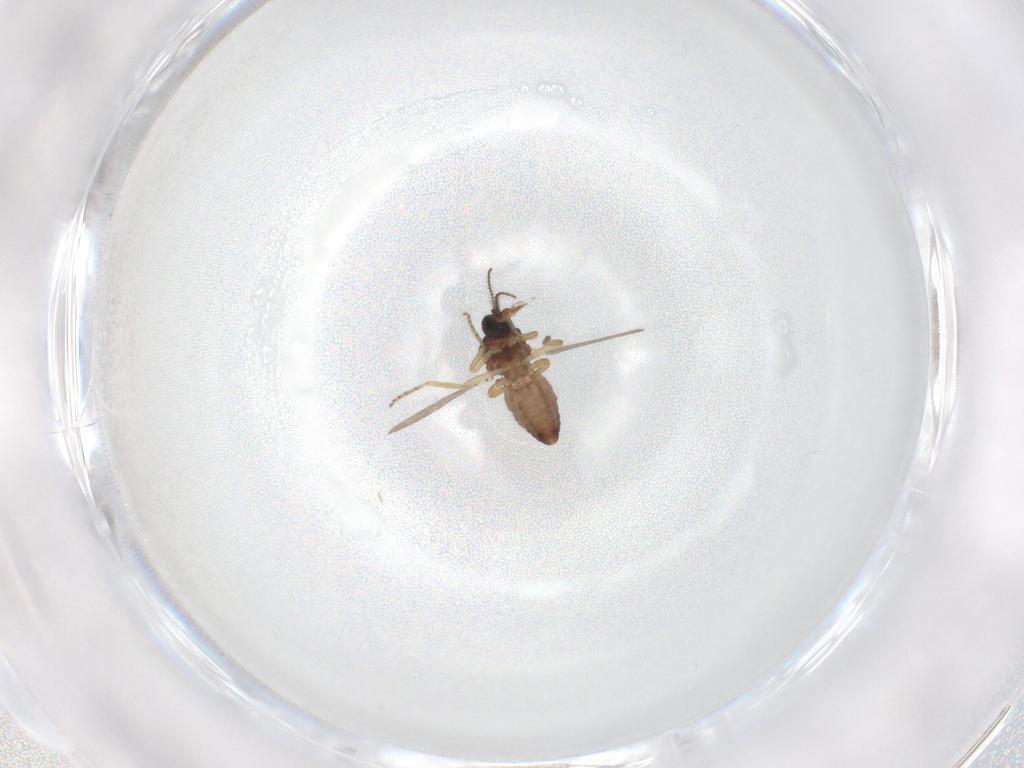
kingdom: Animalia
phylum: Arthropoda
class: Insecta
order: Diptera
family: Ceratopogonidae
